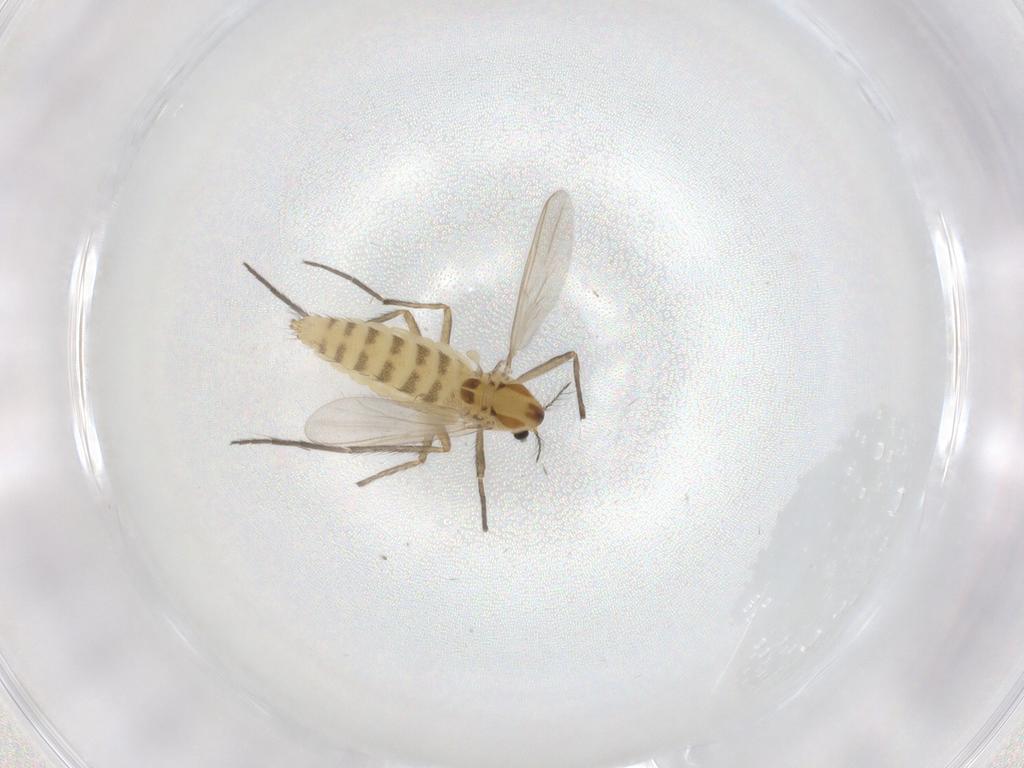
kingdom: Animalia
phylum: Arthropoda
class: Insecta
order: Diptera
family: Chironomidae
